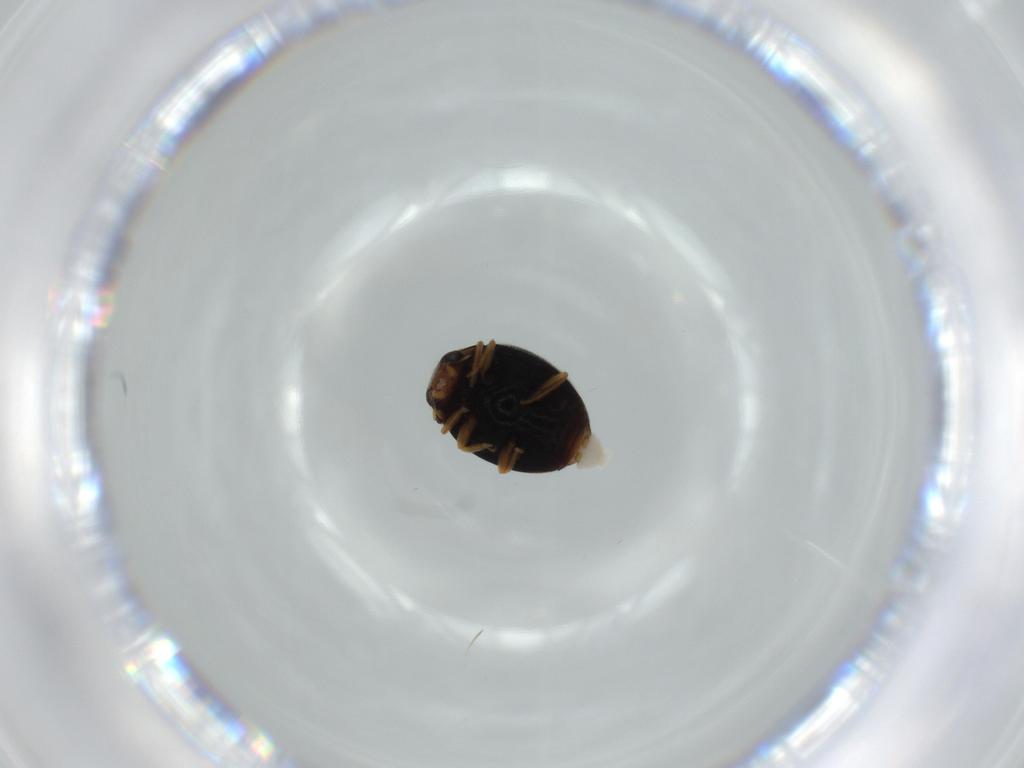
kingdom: Animalia
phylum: Arthropoda
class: Insecta
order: Coleoptera
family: Coccinellidae
